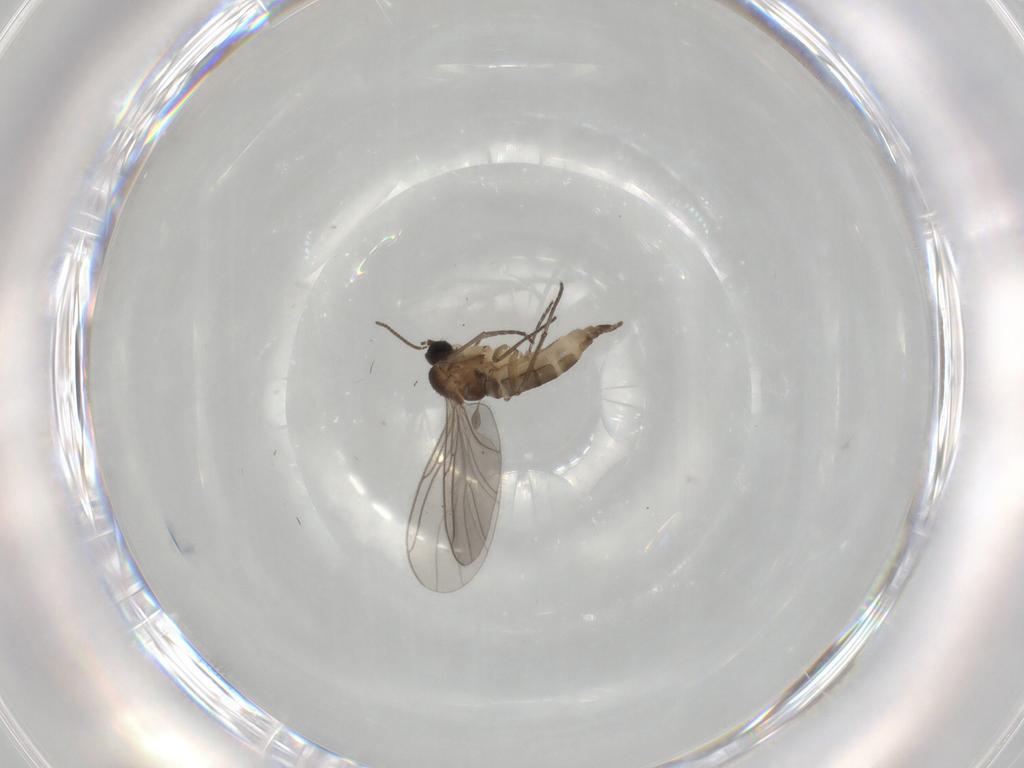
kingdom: Animalia
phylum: Arthropoda
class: Insecta
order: Diptera
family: Sciaridae
